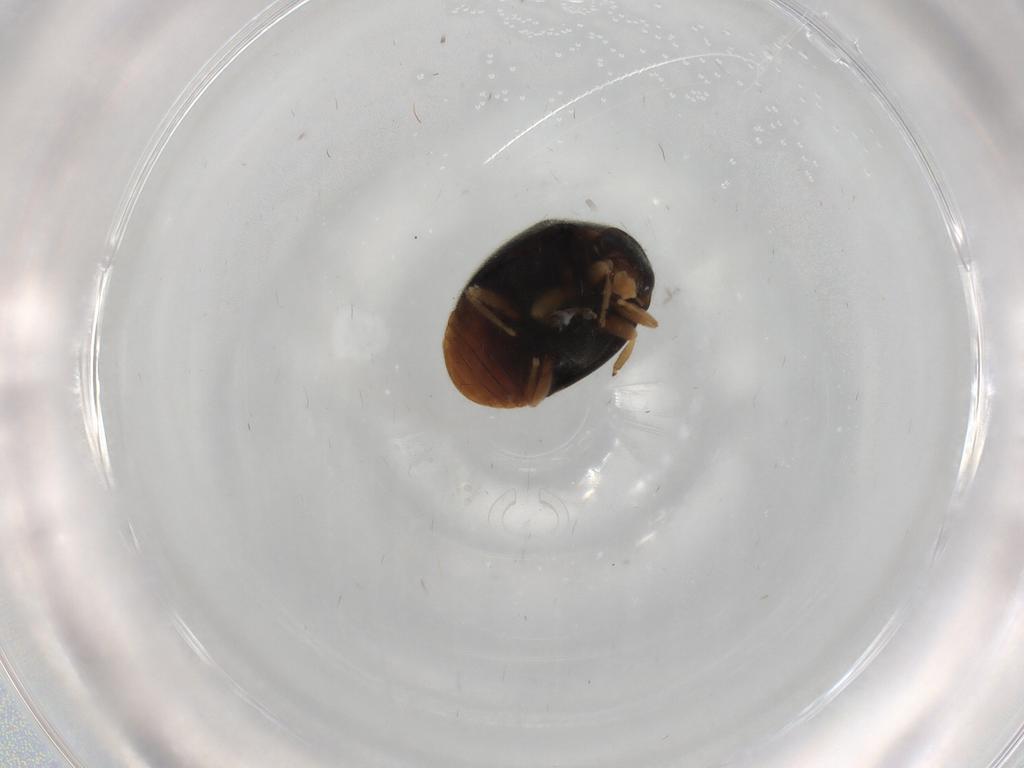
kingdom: Animalia
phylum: Arthropoda
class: Insecta
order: Coleoptera
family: Coccinellidae
